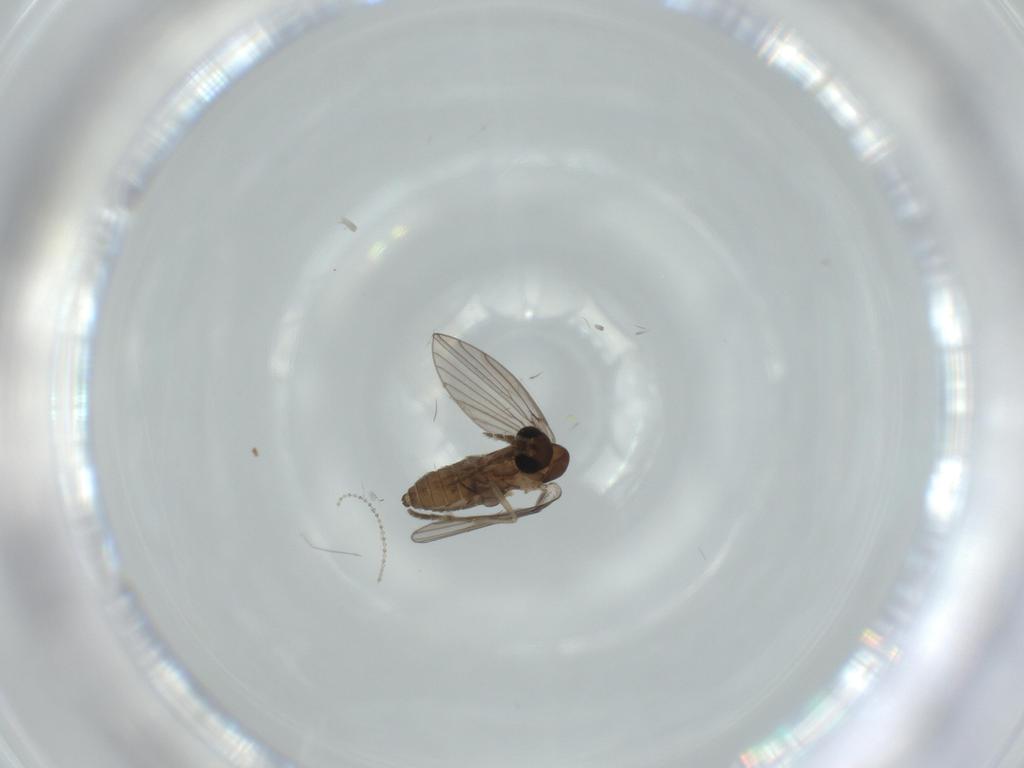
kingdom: Animalia
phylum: Arthropoda
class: Insecta
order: Diptera
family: Cecidomyiidae
